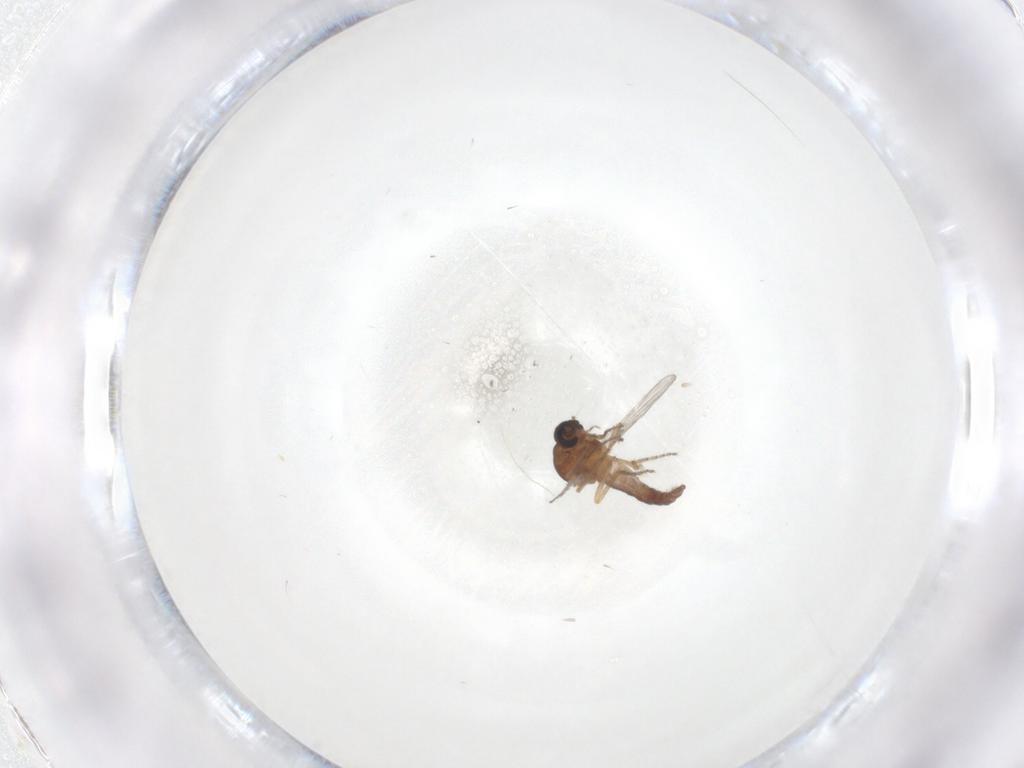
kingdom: Animalia
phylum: Arthropoda
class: Insecta
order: Diptera
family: Ceratopogonidae
